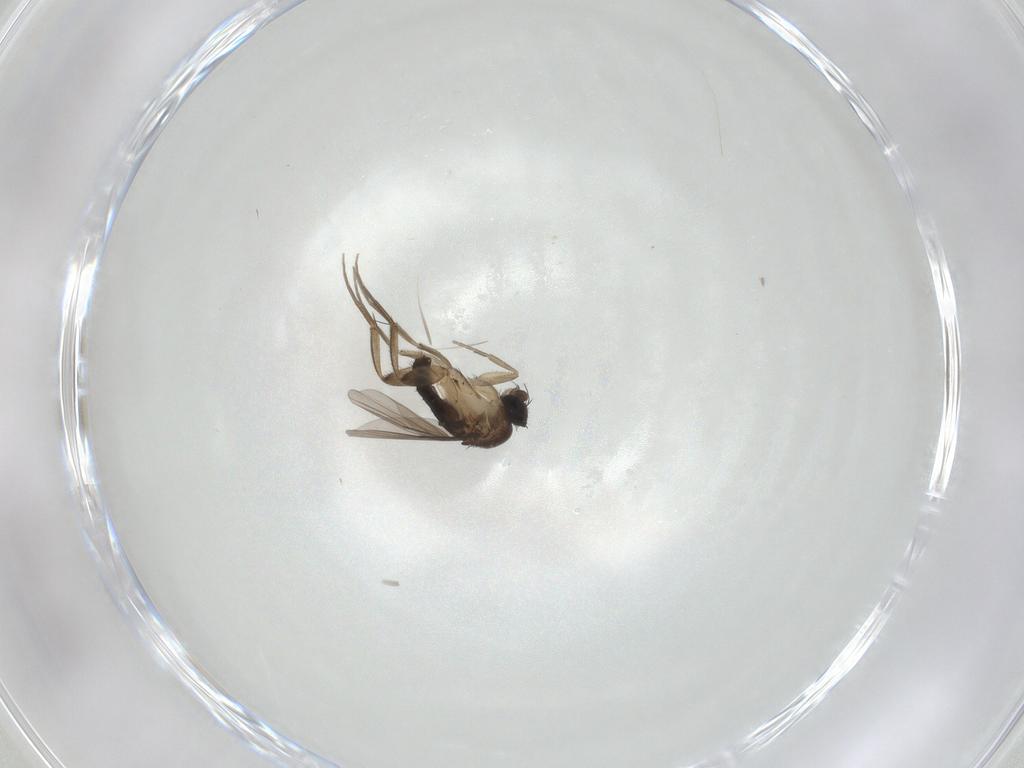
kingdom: Animalia
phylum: Arthropoda
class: Insecta
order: Diptera
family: Phoridae
